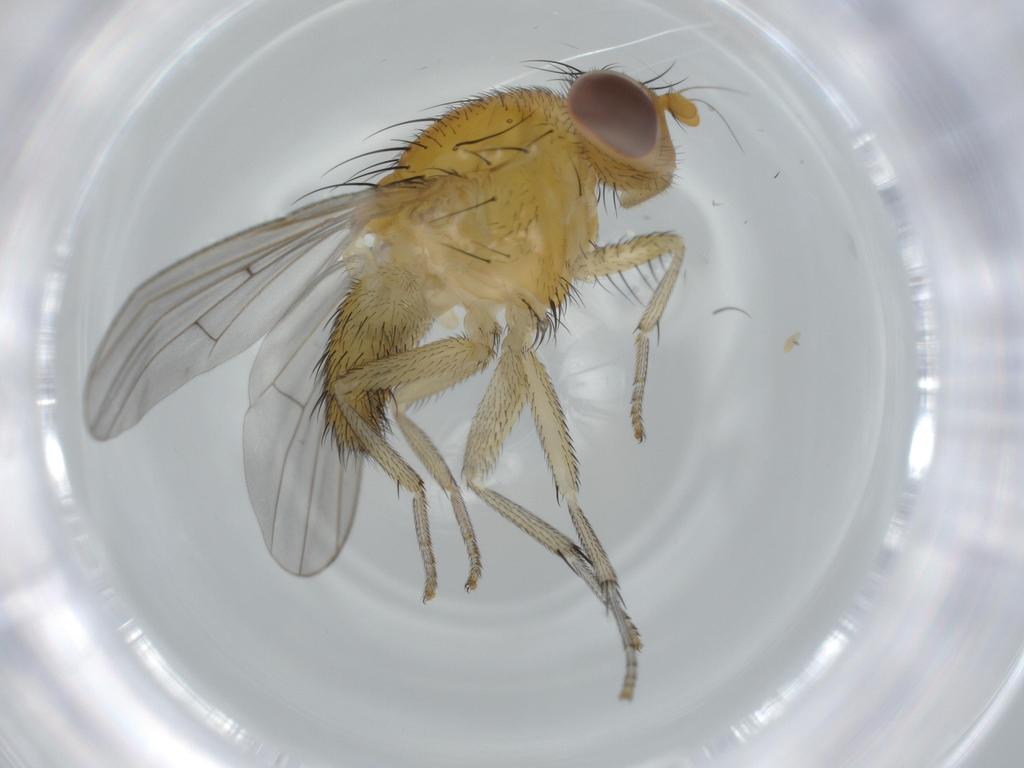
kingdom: Animalia
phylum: Arthropoda
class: Insecta
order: Diptera
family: Lauxaniidae
